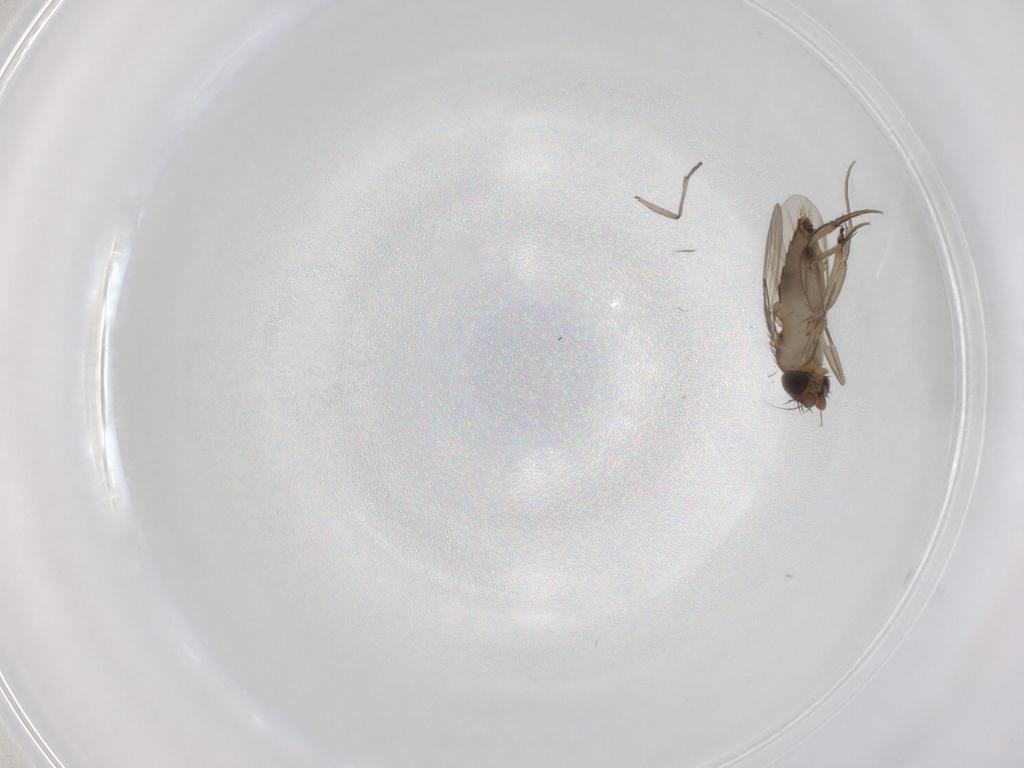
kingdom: Animalia
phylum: Arthropoda
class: Insecta
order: Diptera
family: Phoridae
